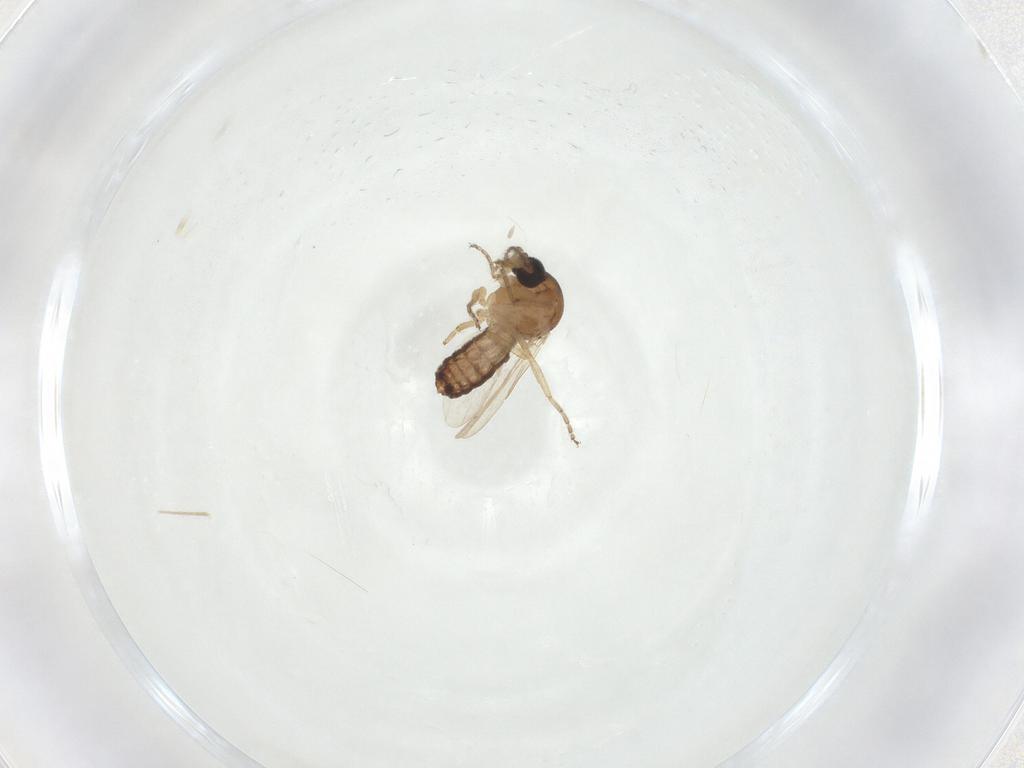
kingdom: Animalia
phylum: Arthropoda
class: Insecta
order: Diptera
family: Ceratopogonidae
